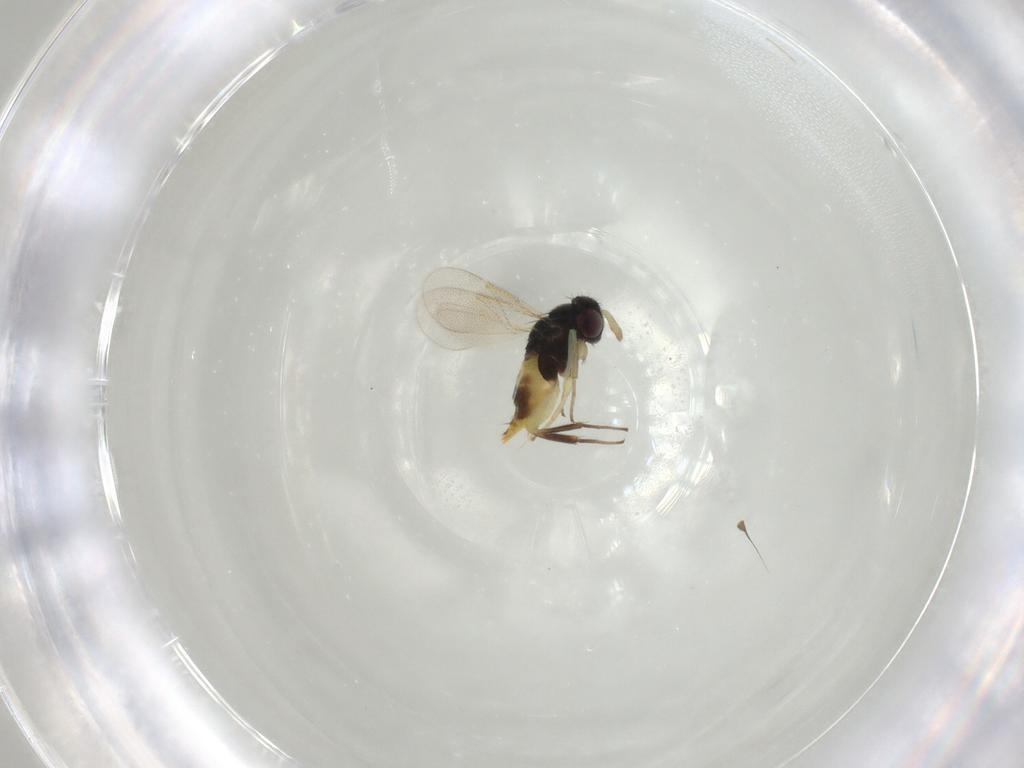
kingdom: Animalia
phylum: Arthropoda
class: Insecta
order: Hymenoptera
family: Aphelinidae
